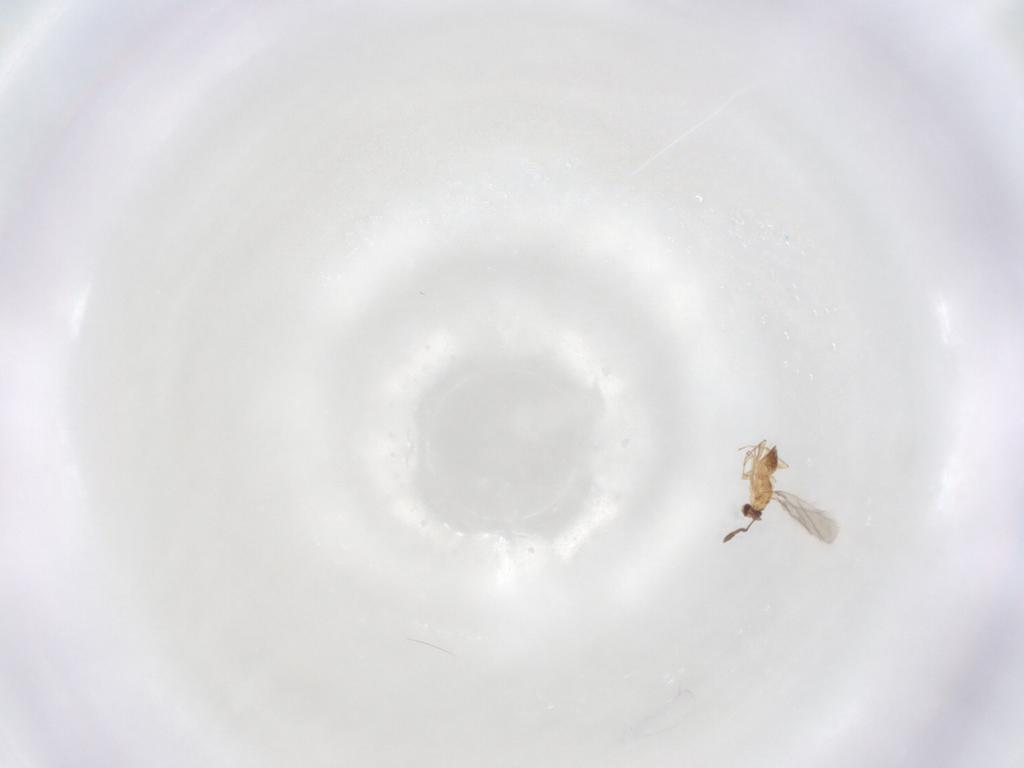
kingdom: Animalia
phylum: Arthropoda
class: Insecta
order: Hymenoptera
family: Mymaridae
